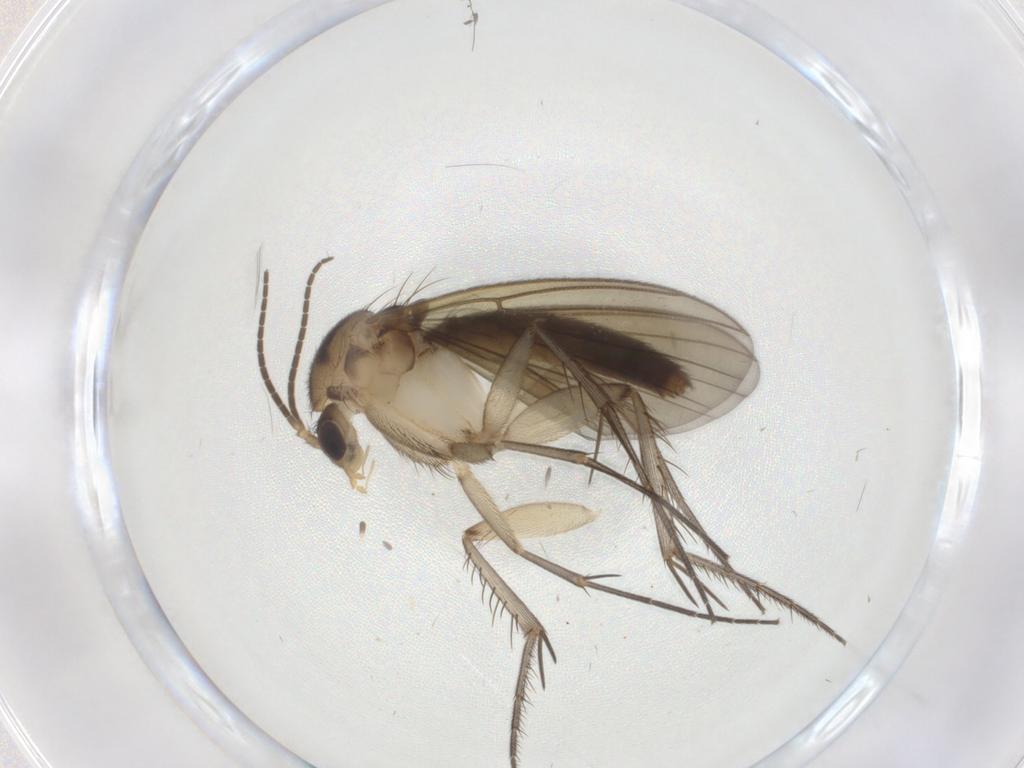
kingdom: Animalia
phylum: Arthropoda
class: Insecta
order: Diptera
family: Mycetophilidae
